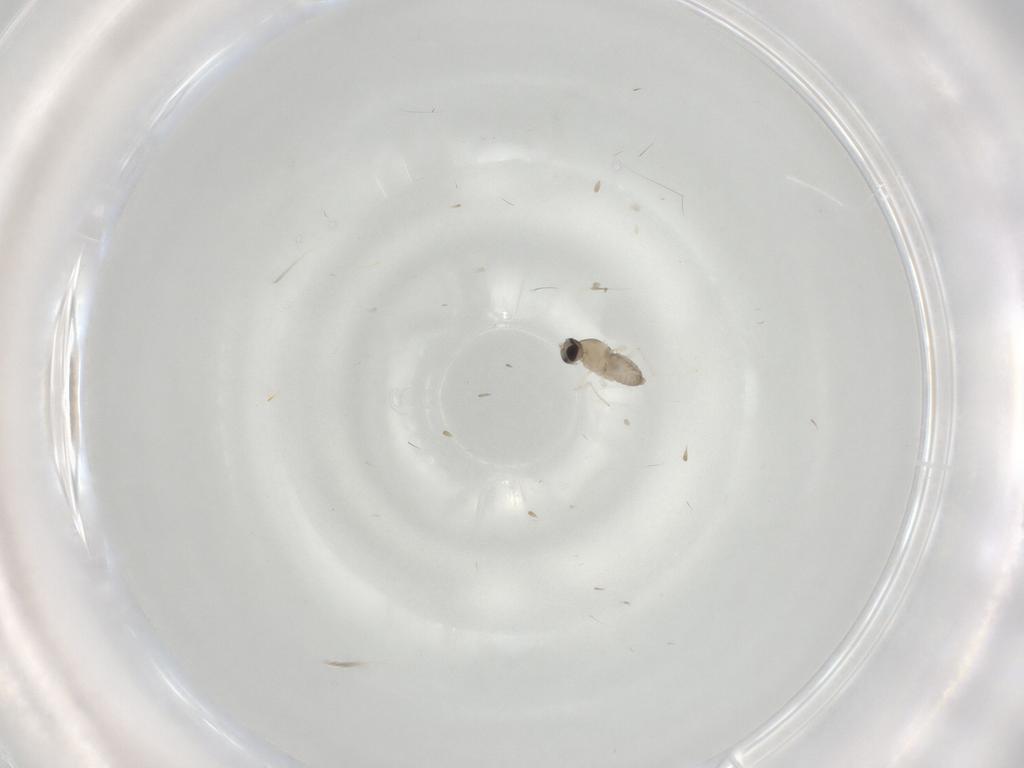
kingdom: Animalia
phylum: Arthropoda
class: Insecta
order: Diptera
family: Cecidomyiidae
